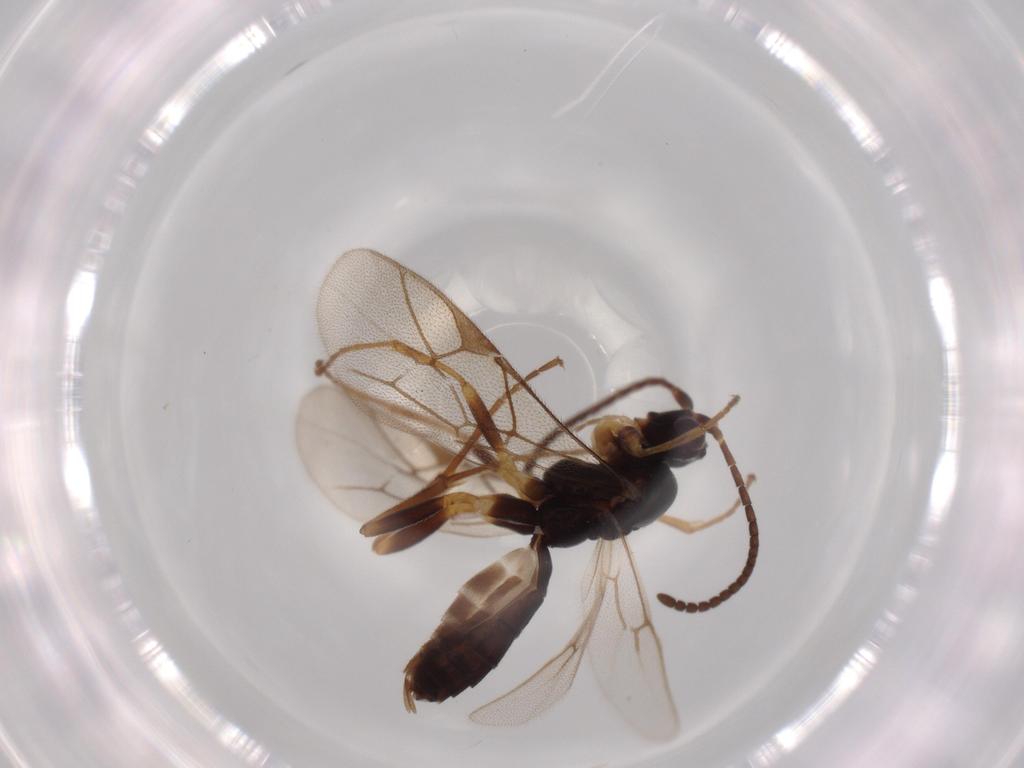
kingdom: Animalia
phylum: Arthropoda
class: Insecta
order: Hymenoptera
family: Ichneumonidae
